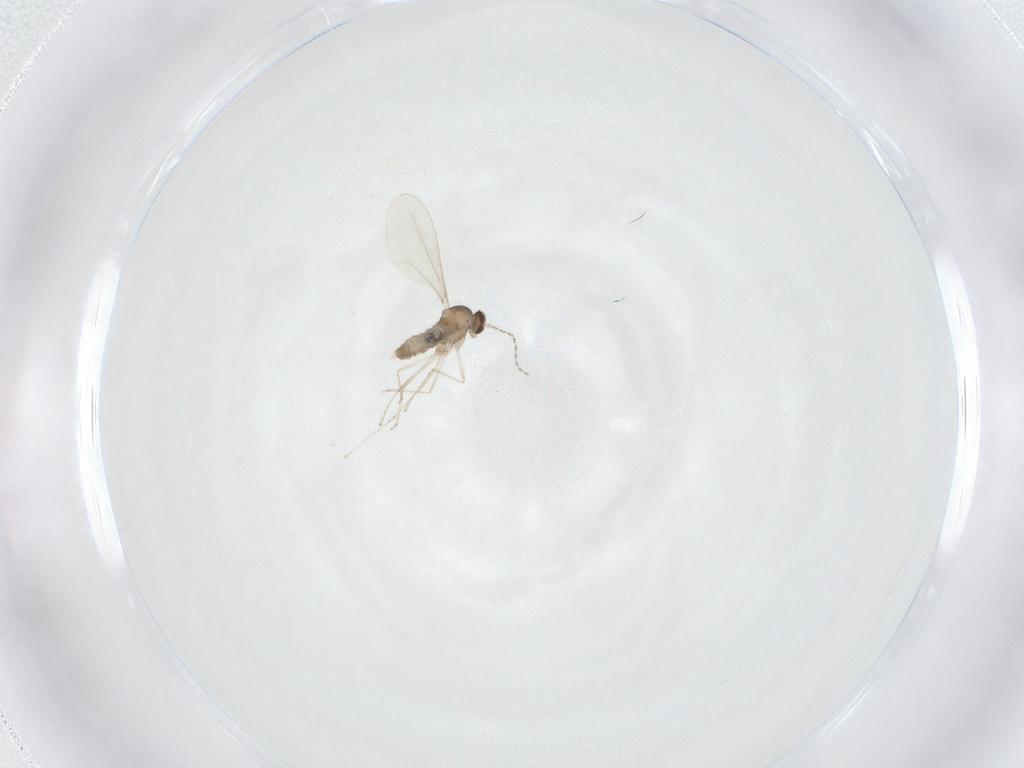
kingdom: Animalia
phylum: Arthropoda
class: Insecta
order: Diptera
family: Cecidomyiidae
